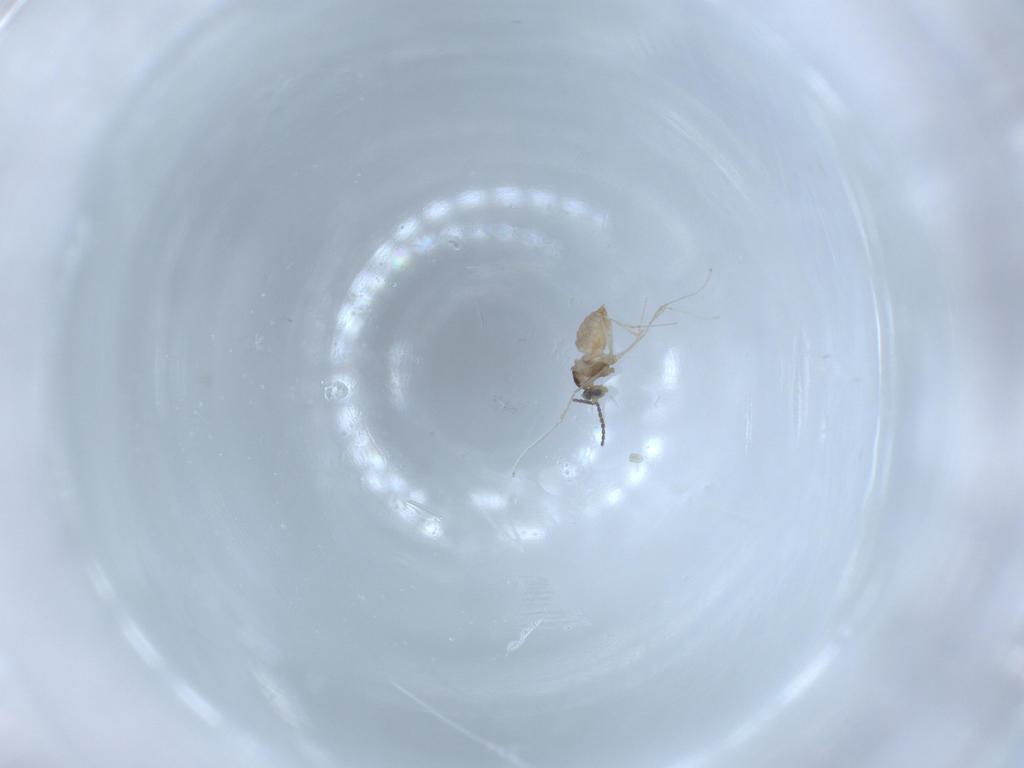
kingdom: Animalia
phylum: Arthropoda
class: Insecta
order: Diptera
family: Cecidomyiidae
